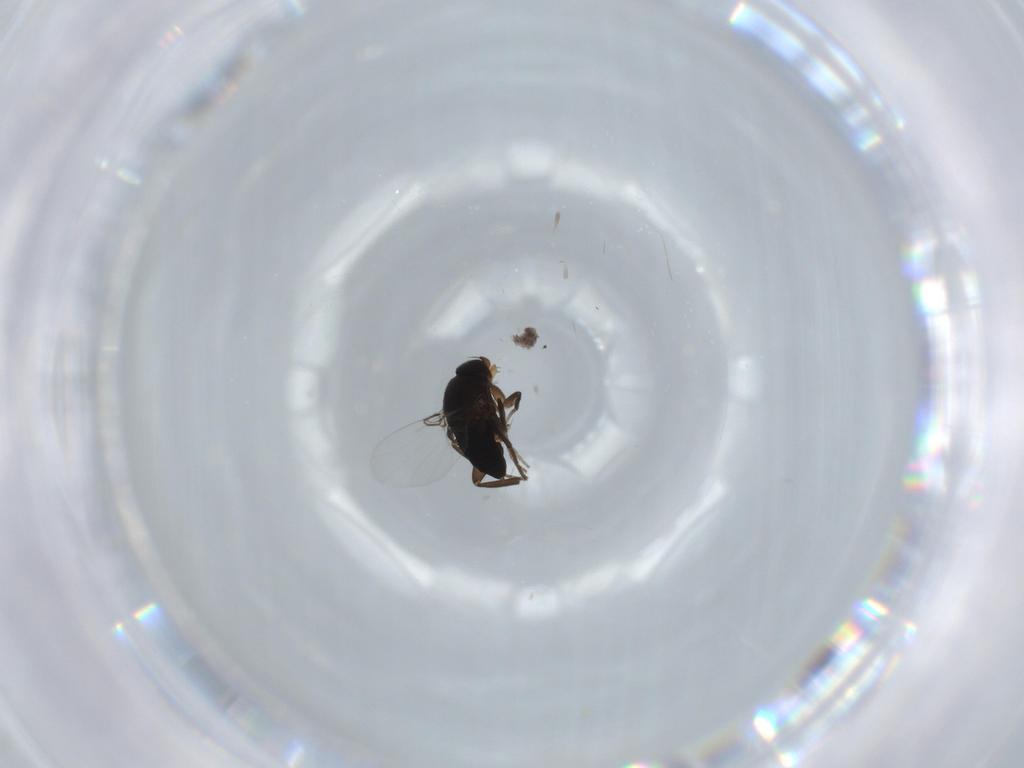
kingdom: Animalia
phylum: Arthropoda
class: Insecta
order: Diptera
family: Phoridae
